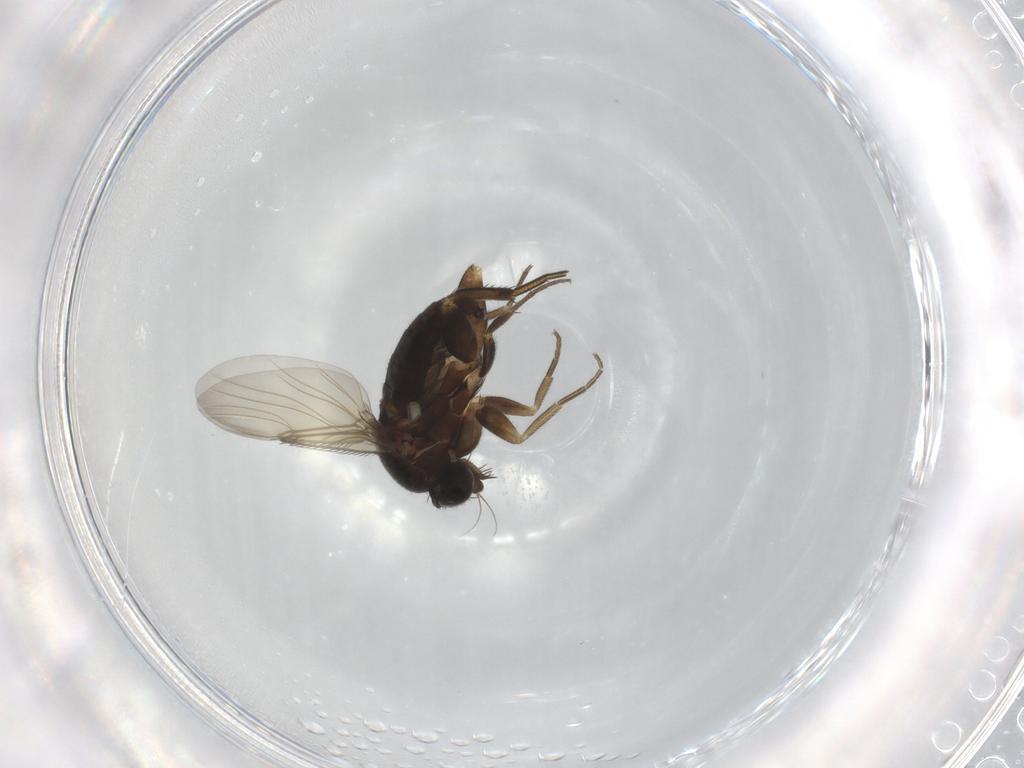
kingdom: Animalia
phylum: Arthropoda
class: Insecta
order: Diptera
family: Phoridae
